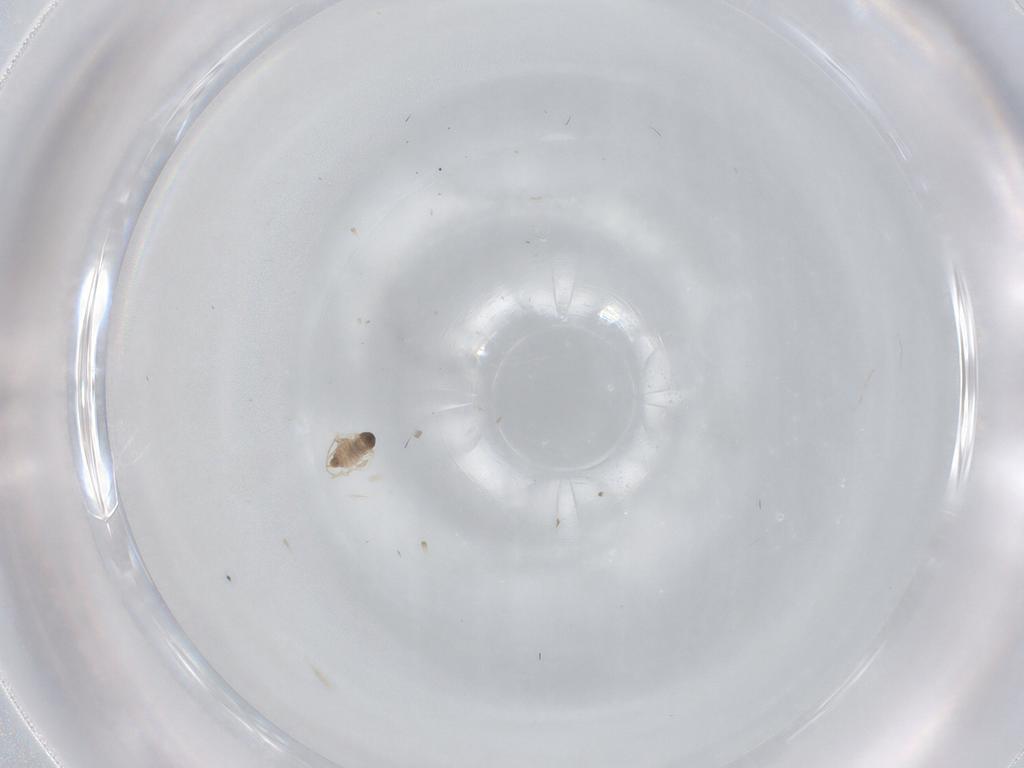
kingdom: Animalia
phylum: Arthropoda
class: Insecta
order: Diptera
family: Cecidomyiidae
